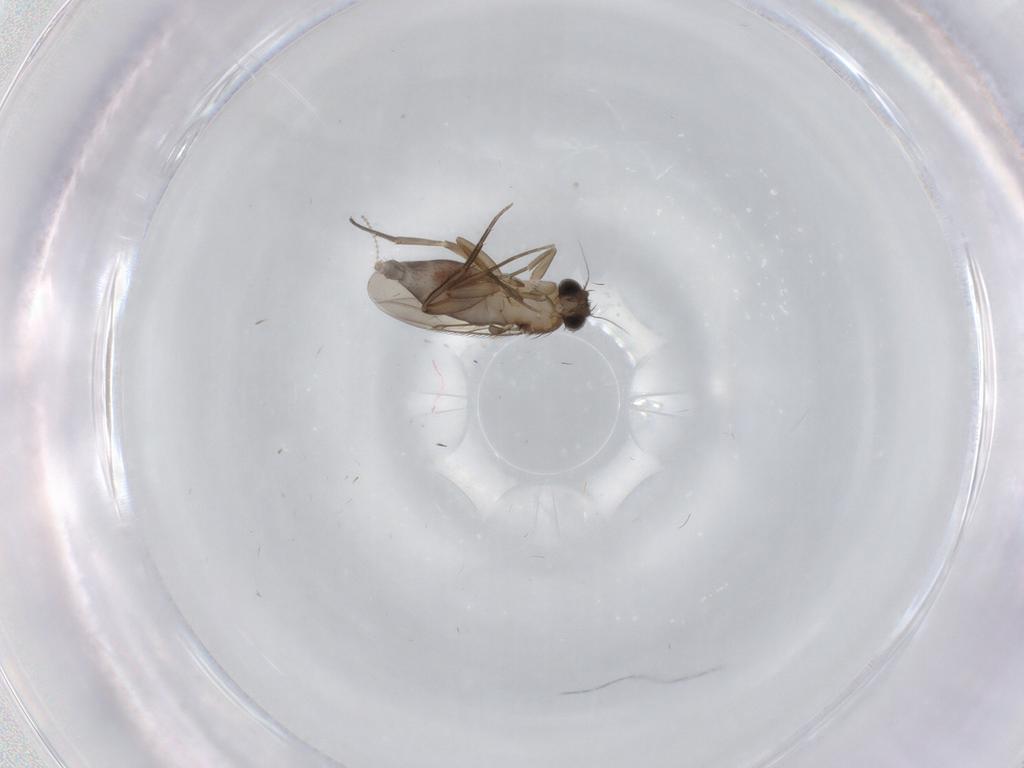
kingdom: Animalia
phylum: Arthropoda
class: Insecta
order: Diptera
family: Phoridae
